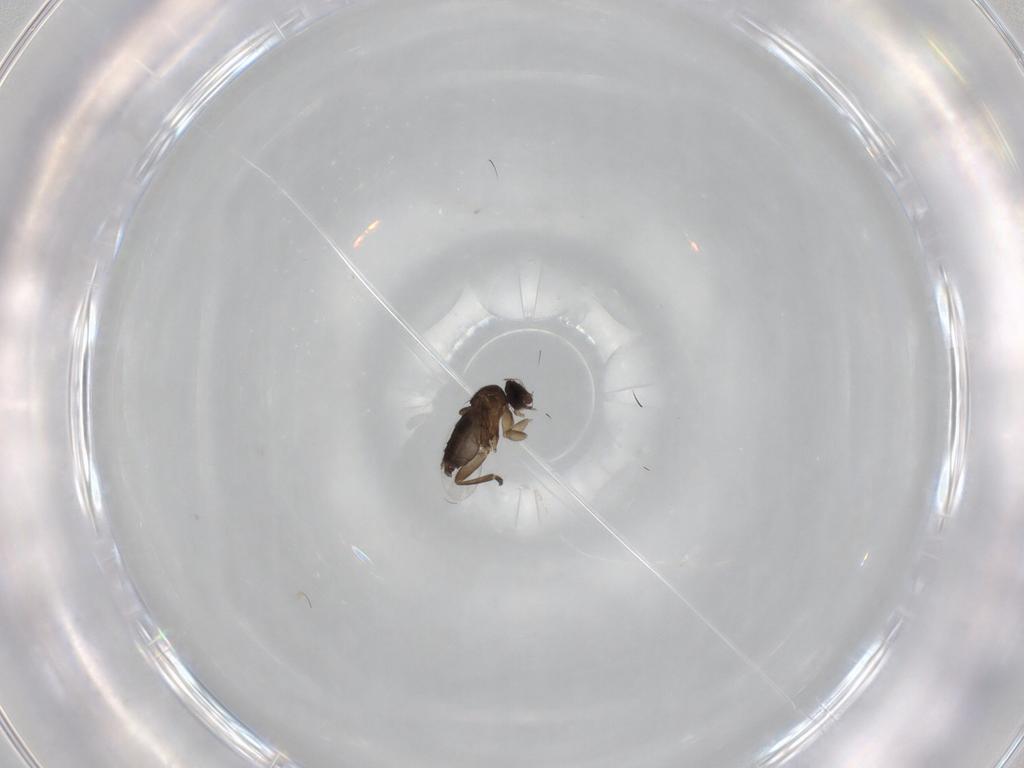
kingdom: Animalia
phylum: Arthropoda
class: Insecta
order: Diptera
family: Phoridae
